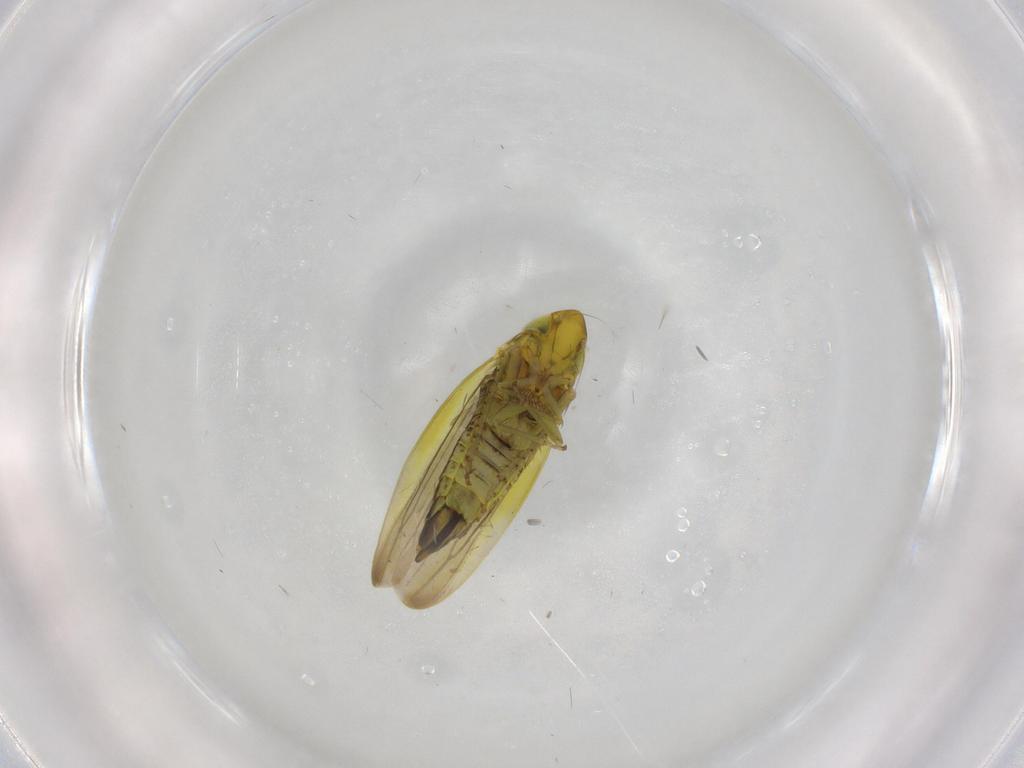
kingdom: Animalia
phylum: Arthropoda
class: Insecta
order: Hemiptera
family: Cicadellidae
